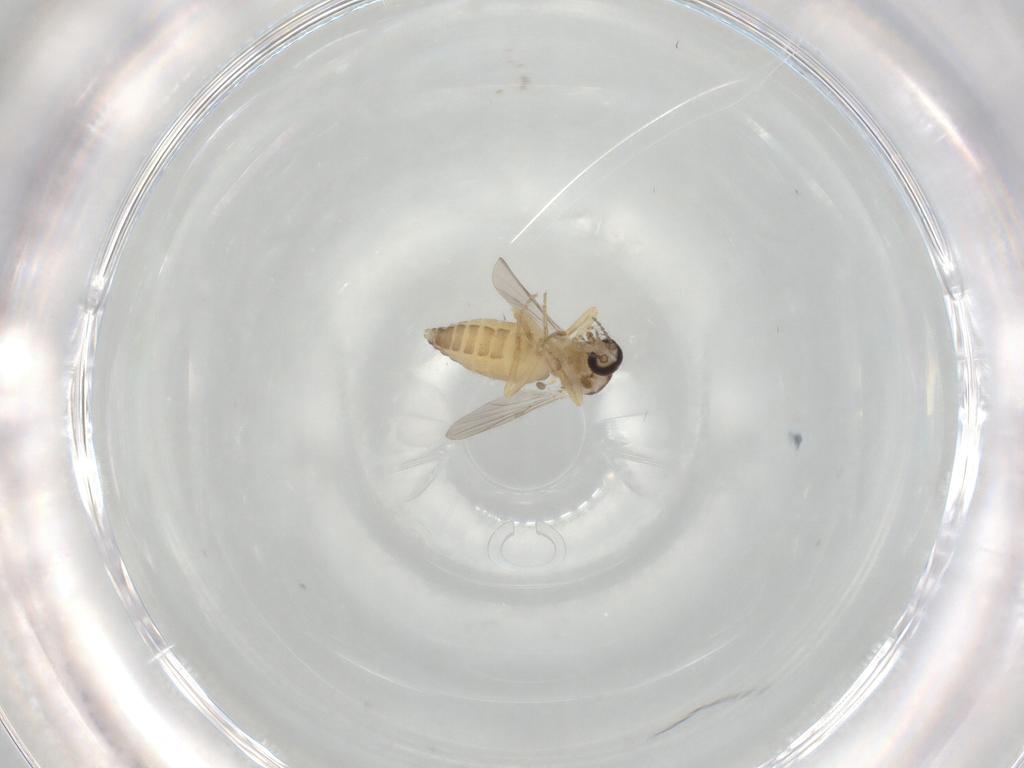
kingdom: Animalia
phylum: Arthropoda
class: Insecta
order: Diptera
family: Ceratopogonidae
